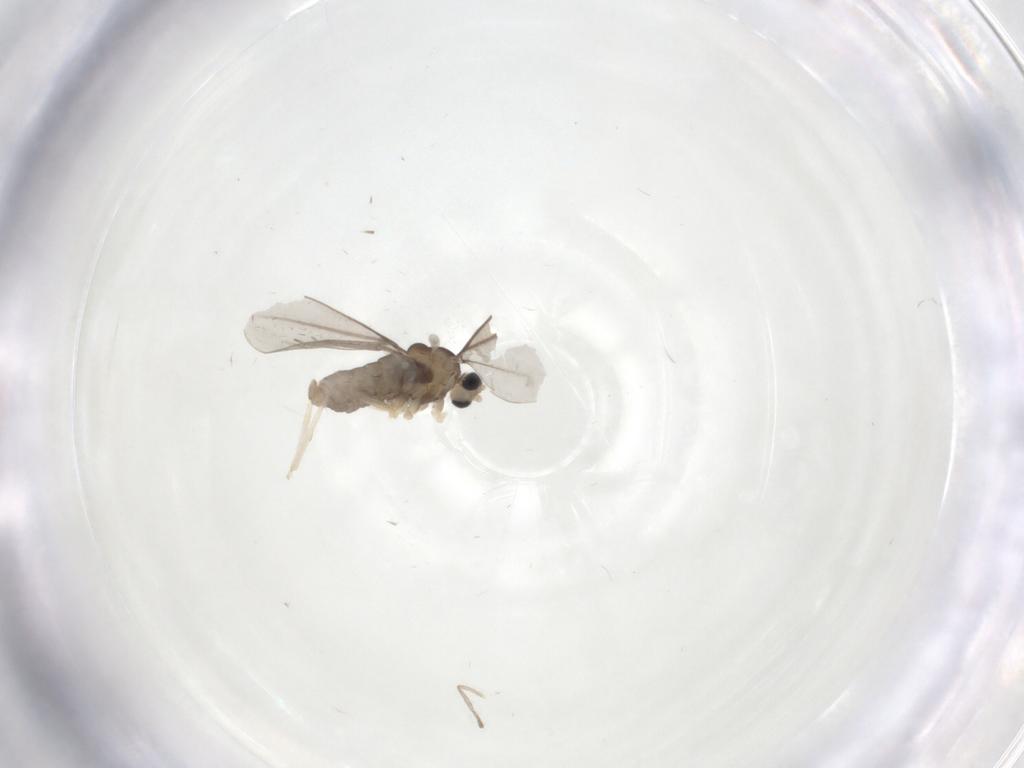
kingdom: Animalia
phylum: Arthropoda
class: Insecta
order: Diptera
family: Cecidomyiidae
